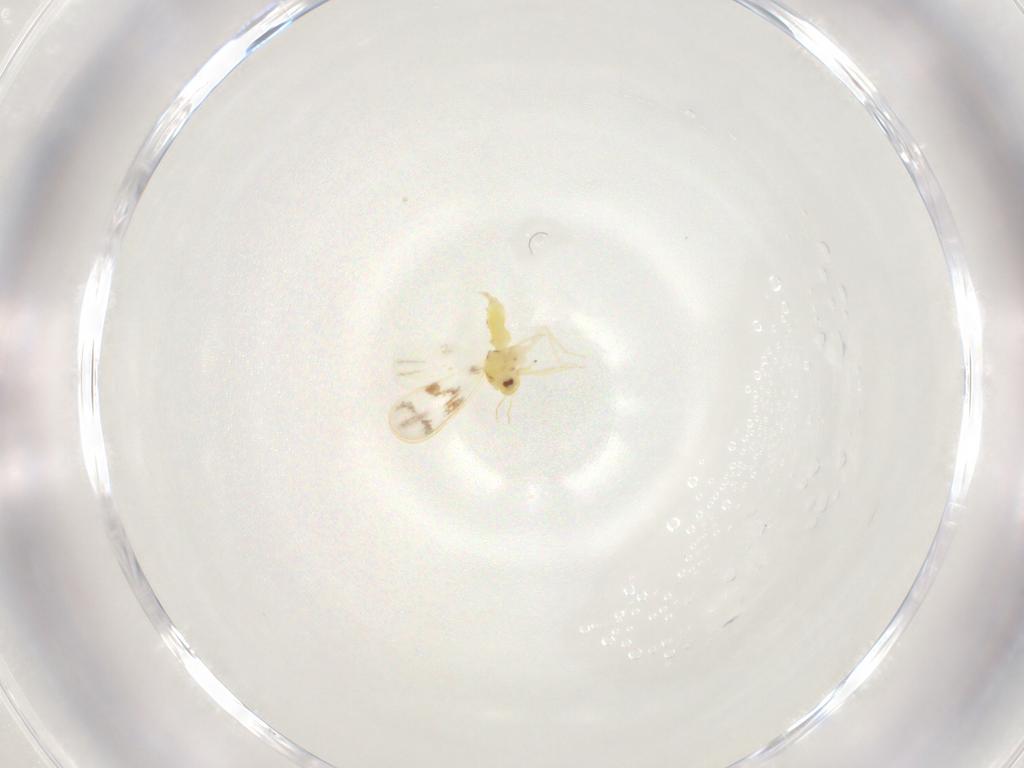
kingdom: Animalia
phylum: Arthropoda
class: Insecta
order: Hemiptera
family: Aleyrodidae
